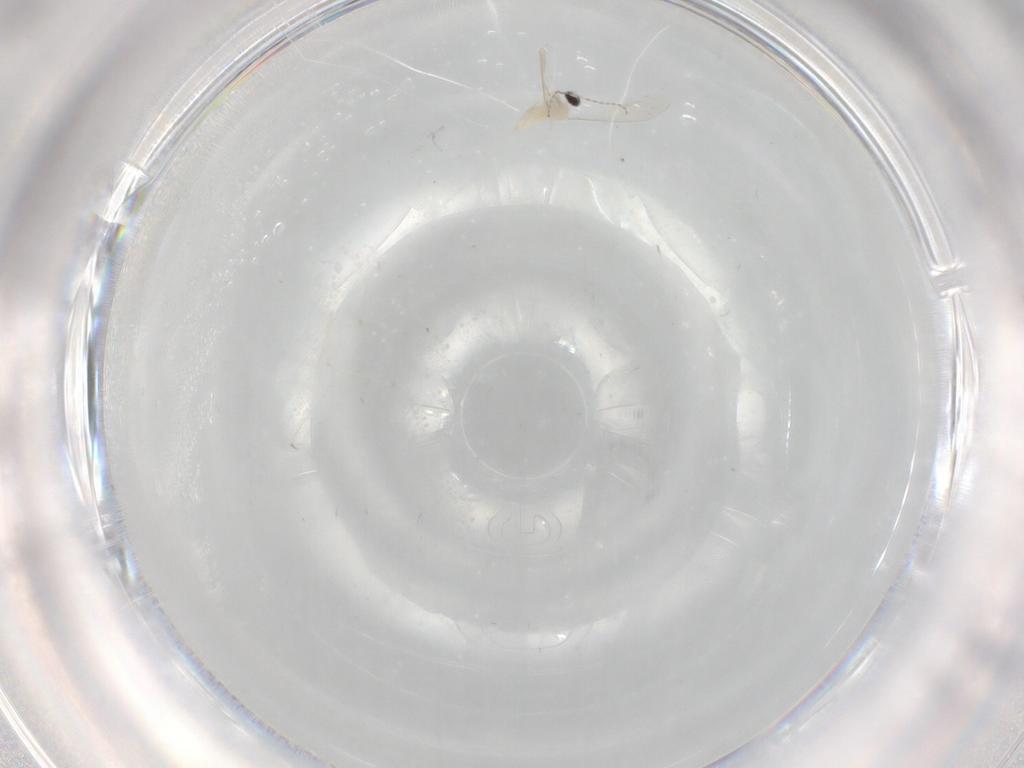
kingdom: Animalia
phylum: Arthropoda
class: Insecta
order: Diptera
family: Cecidomyiidae
